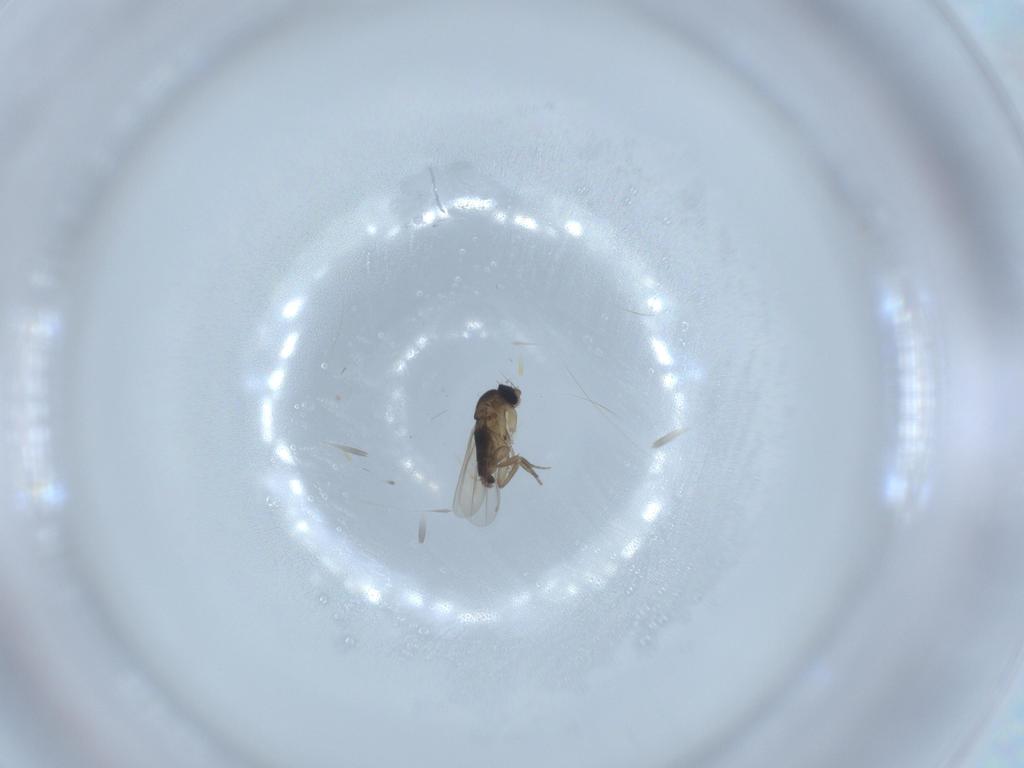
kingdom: Animalia
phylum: Arthropoda
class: Insecta
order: Diptera
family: Phoridae
